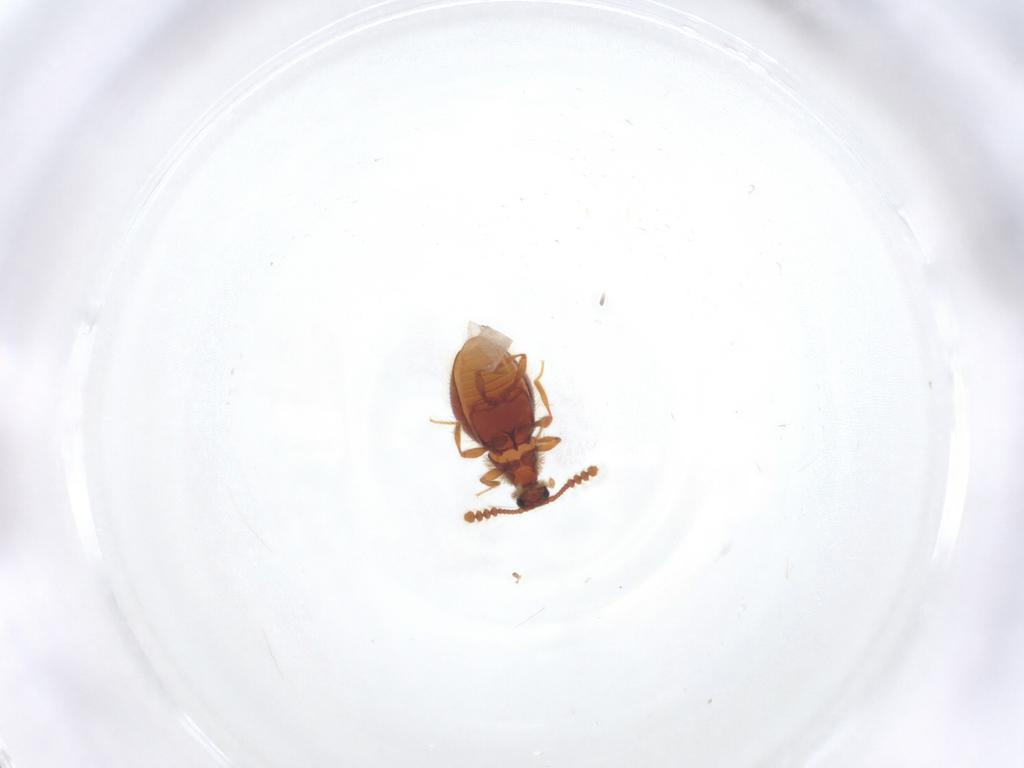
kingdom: Animalia
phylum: Arthropoda
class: Insecta
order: Coleoptera
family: Staphylinidae
